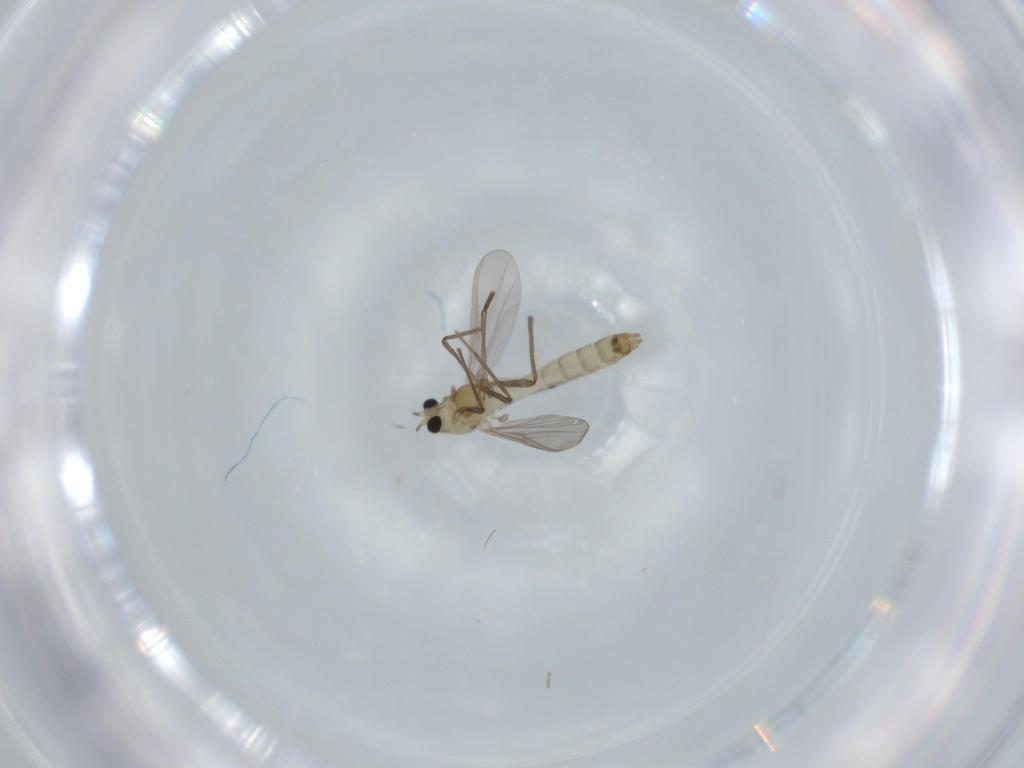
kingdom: Animalia
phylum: Arthropoda
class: Insecta
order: Diptera
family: Chironomidae
